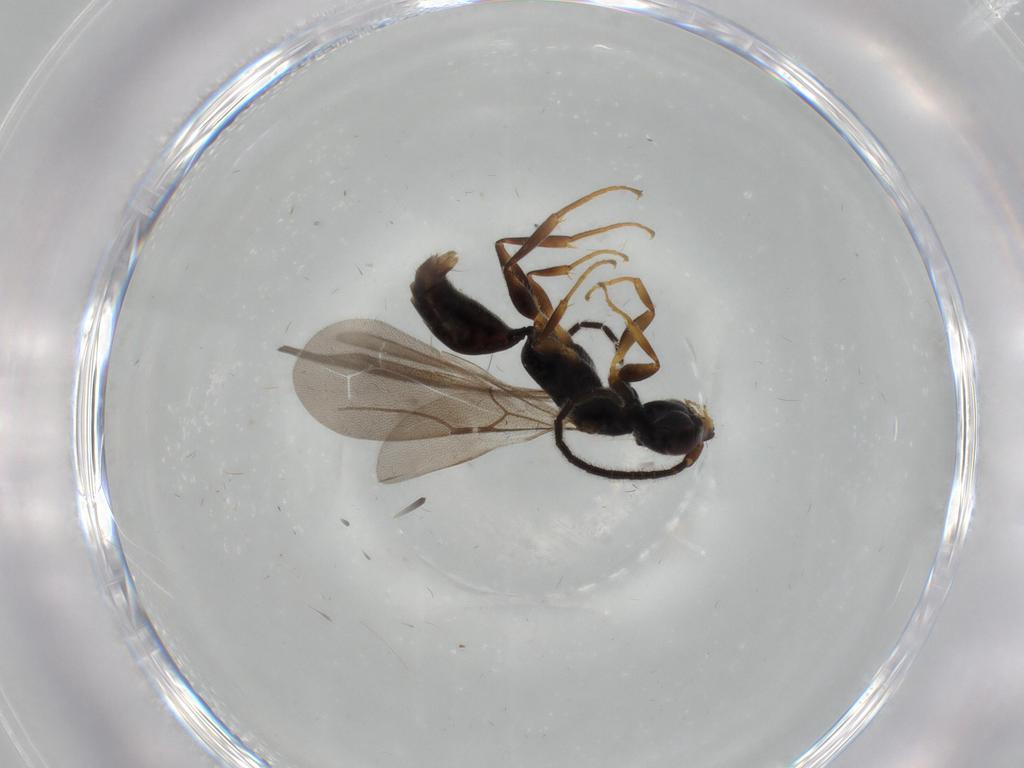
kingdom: Animalia
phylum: Arthropoda
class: Insecta
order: Hymenoptera
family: Bethylidae
